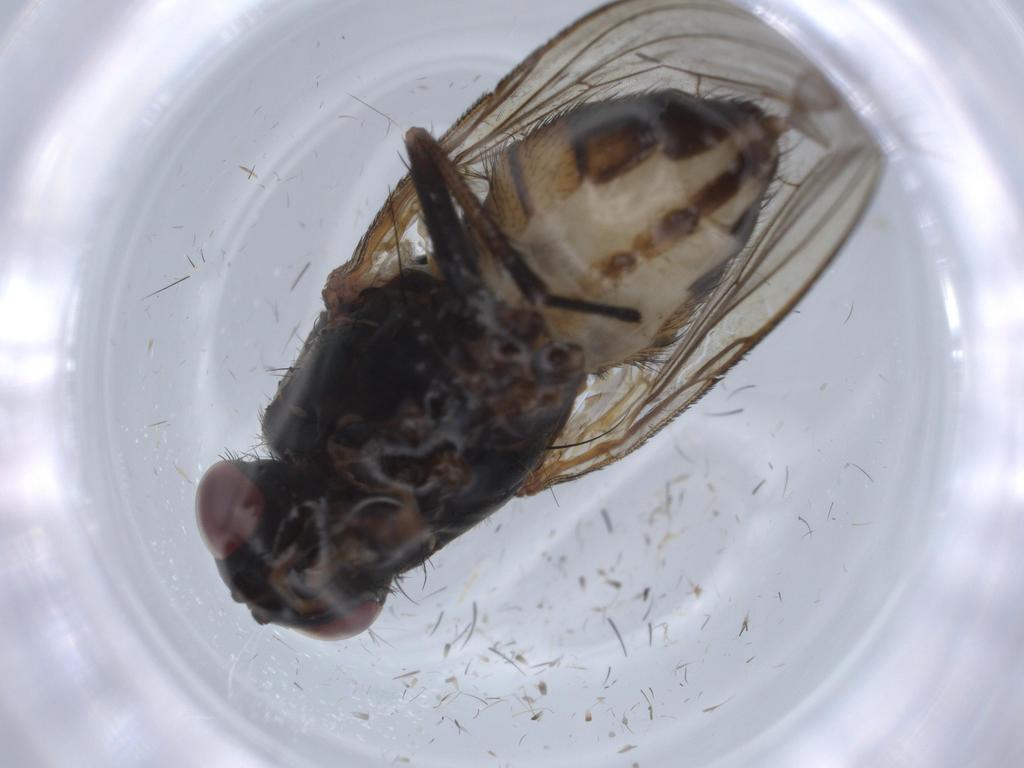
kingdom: Animalia
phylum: Arthropoda
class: Insecta
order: Diptera
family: Anthomyiidae
